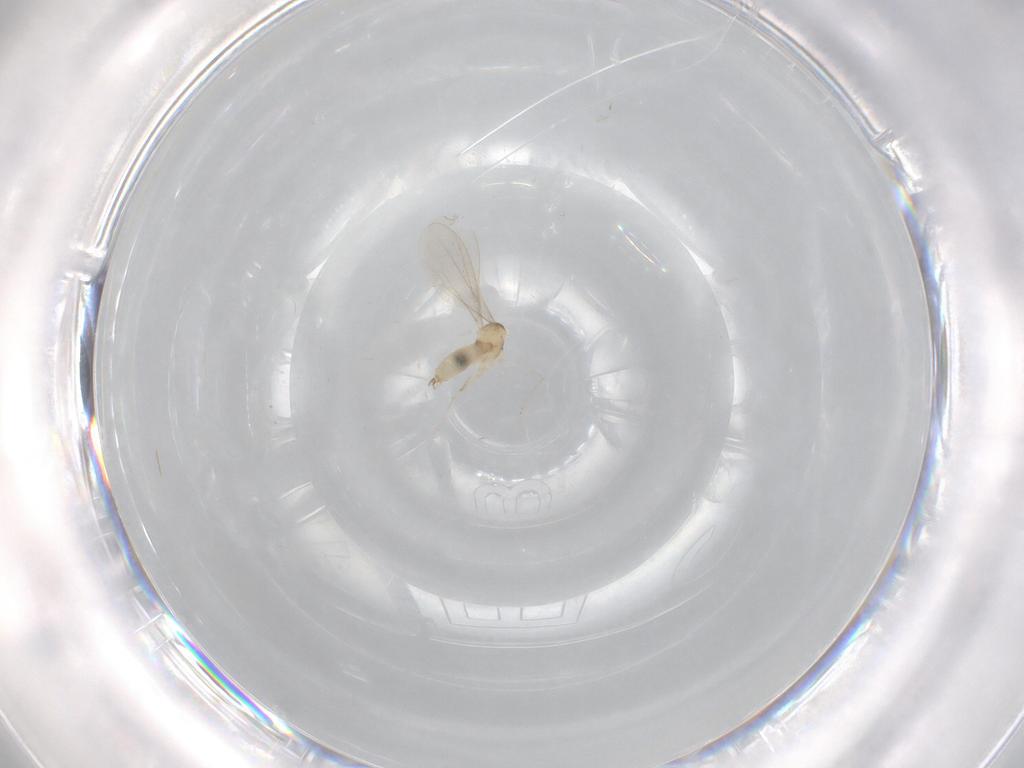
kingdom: Animalia
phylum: Arthropoda
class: Insecta
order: Diptera
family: Cecidomyiidae
